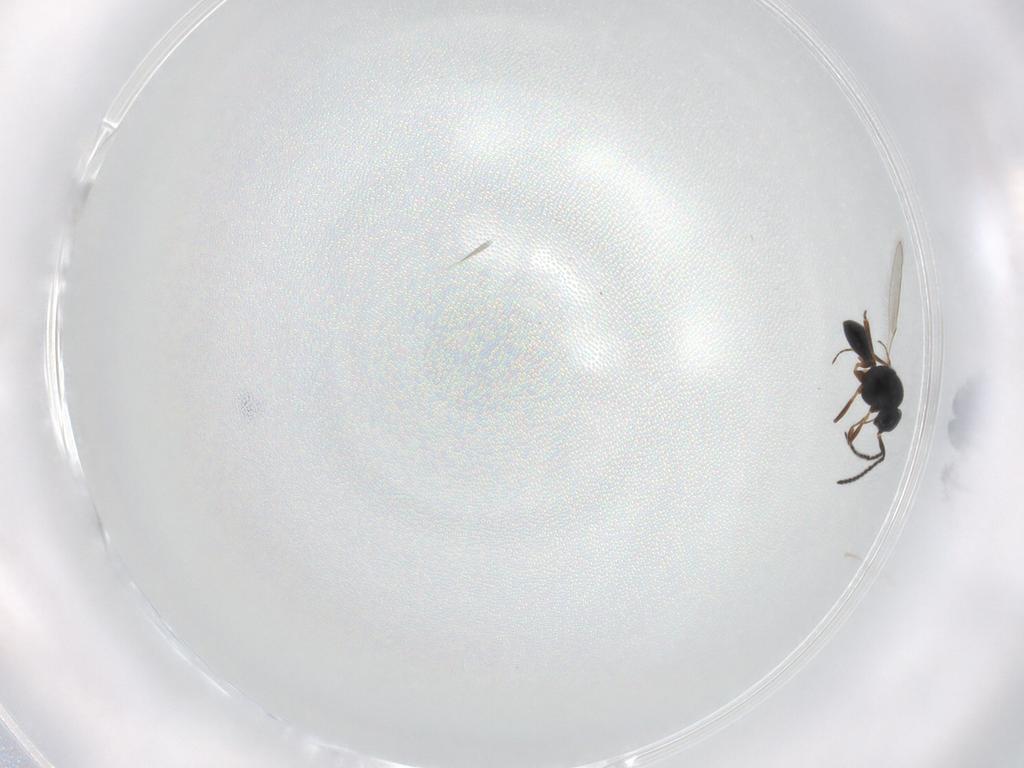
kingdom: Animalia
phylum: Arthropoda
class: Insecta
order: Hymenoptera
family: Scelionidae
